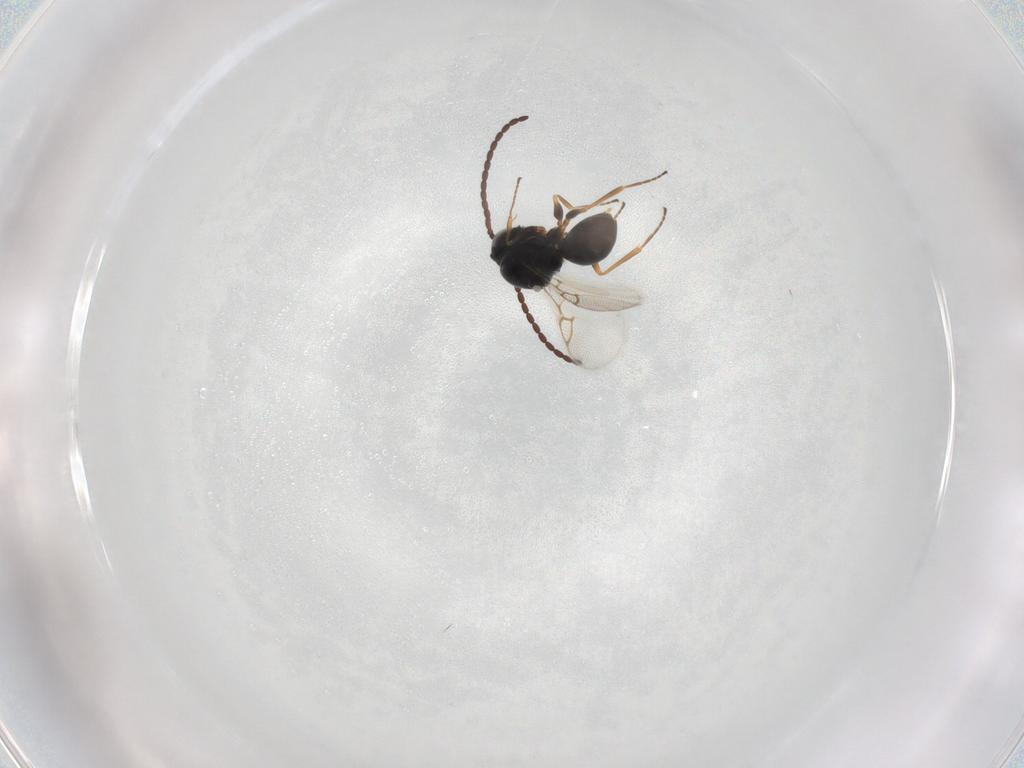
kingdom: Animalia
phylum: Arthropoda
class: Insecta
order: Hymenoptera
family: Figitidae
